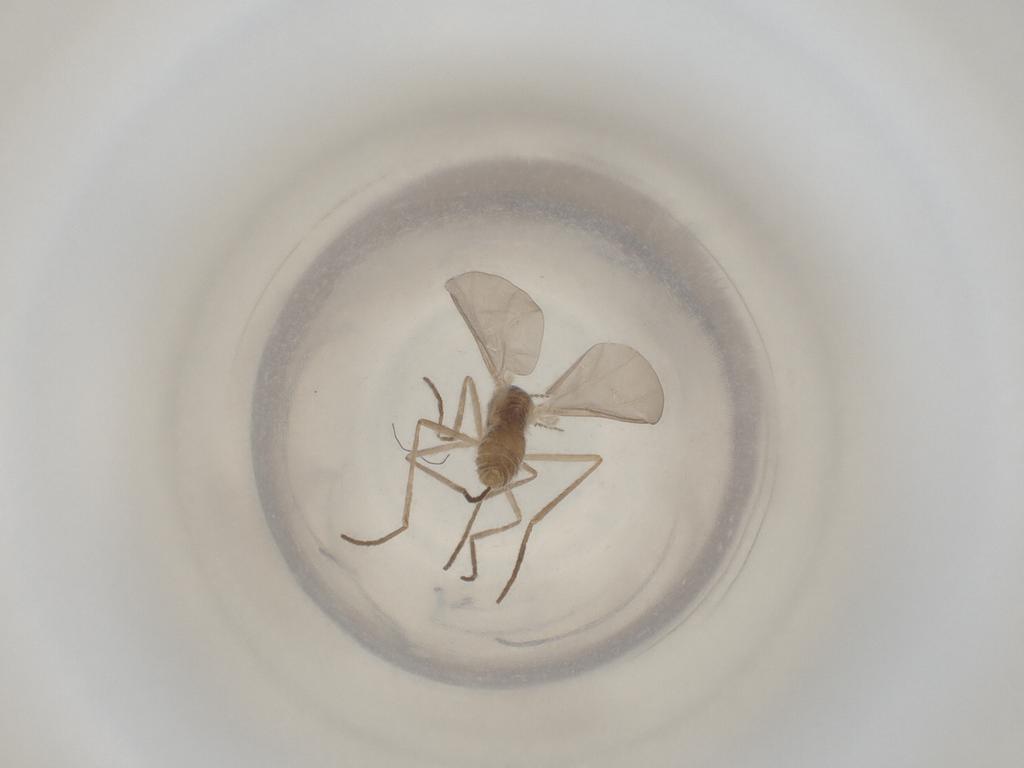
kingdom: Animalia
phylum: Arthropoda
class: Insecta
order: Diptera
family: Cecidomyiidae
